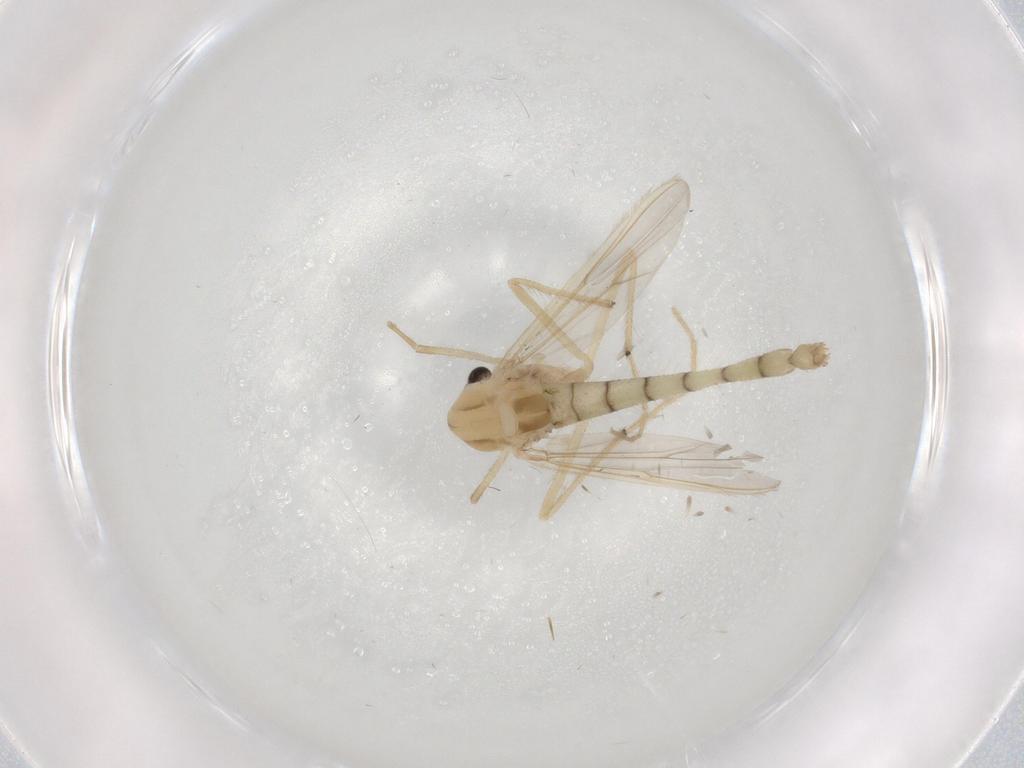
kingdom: Animalia
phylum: Arthropoda
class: Insecta
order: Diptera
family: Chironomidae
